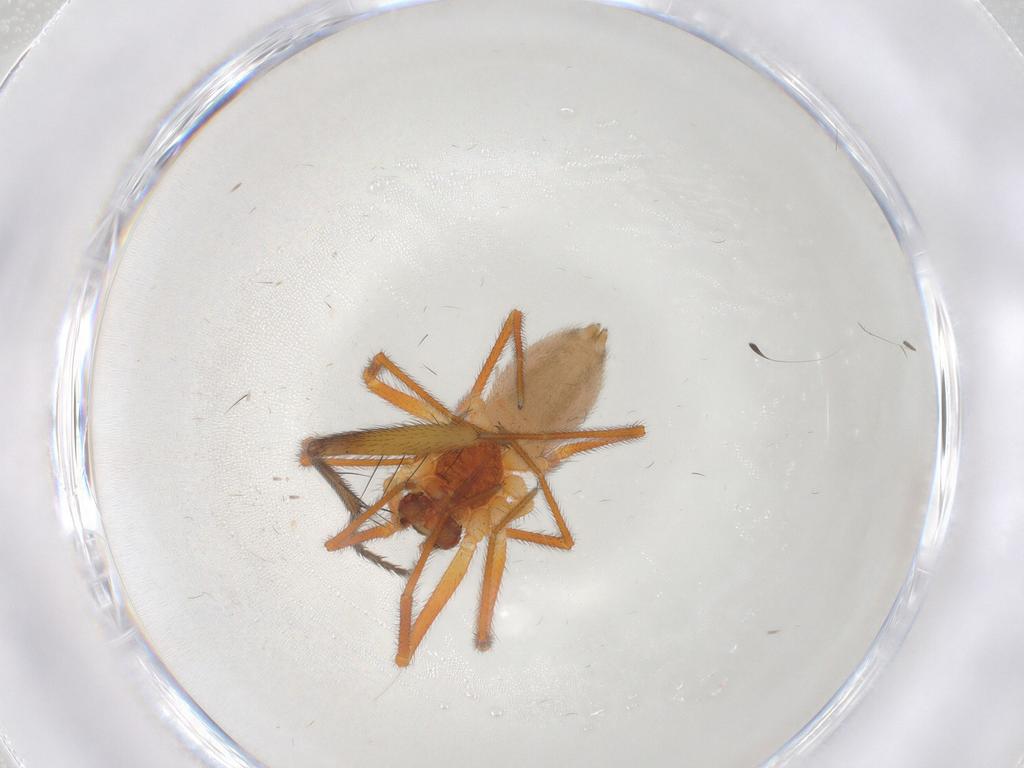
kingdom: Animalia
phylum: Arthropoda
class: Arachnida
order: Araneae
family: Linyphiidae
